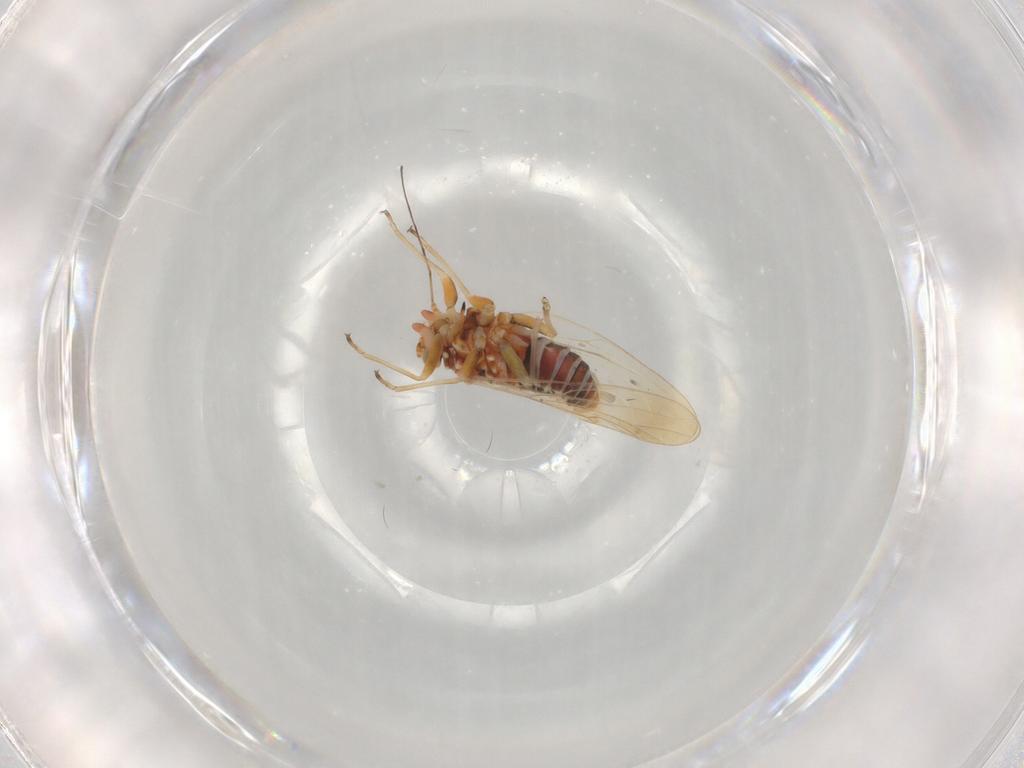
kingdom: Animalia
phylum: Arthropoda
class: Insecta
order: Hemiptera
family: Psyllidae
